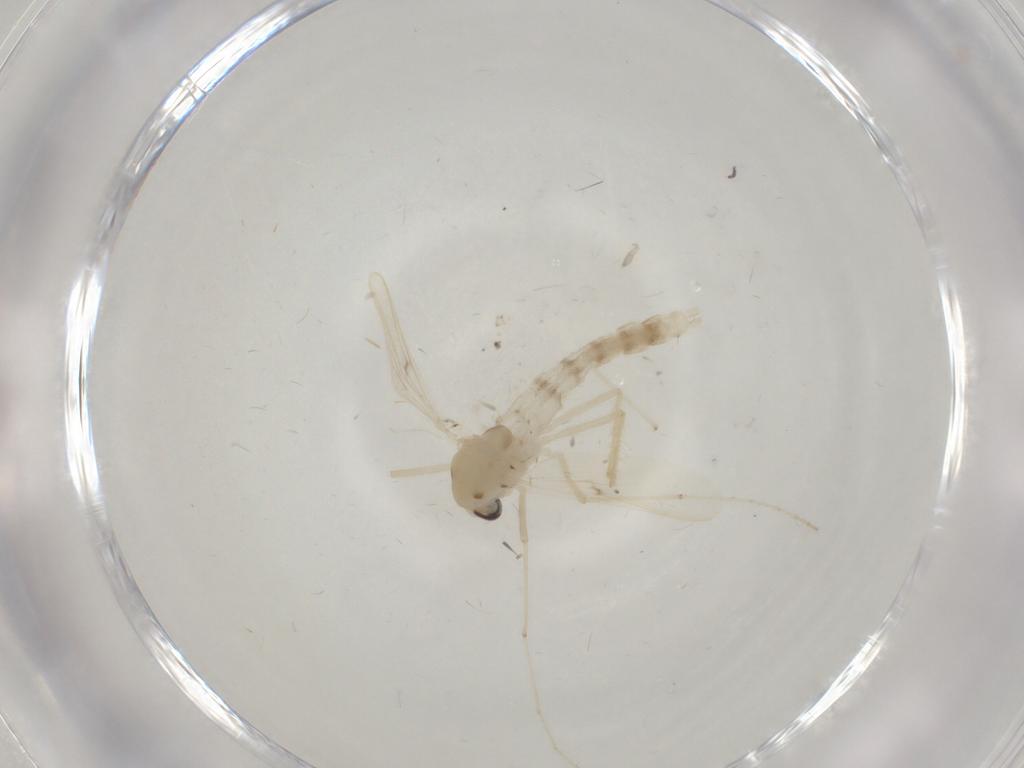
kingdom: Animalia
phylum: Arthropoda
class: Insecta
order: Diptera
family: Chironomidae
